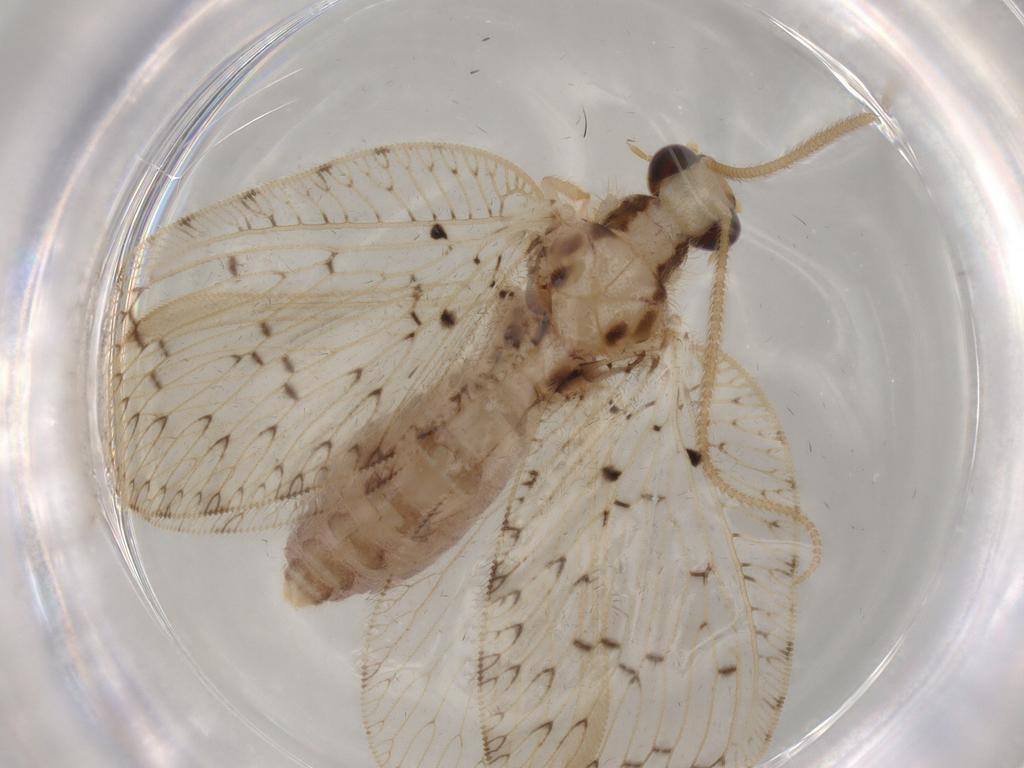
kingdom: Animalia
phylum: Arthropoda
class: Insecta
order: Neuroptera
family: Hemerobiidae
